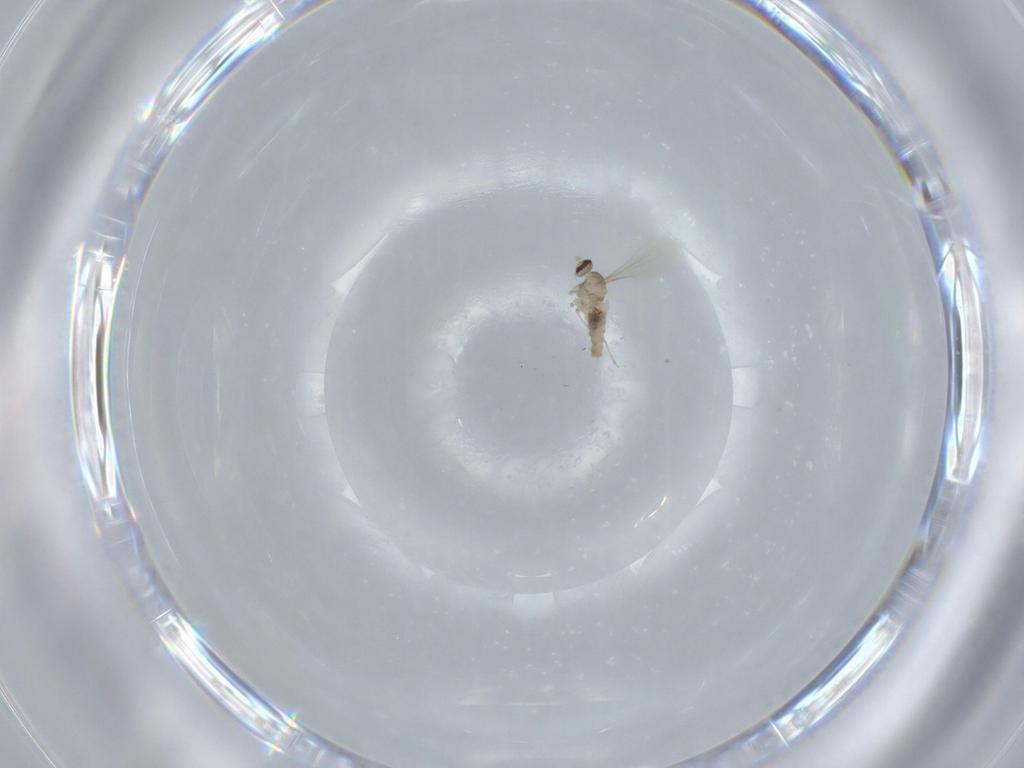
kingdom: Animalia
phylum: Arthropoda
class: Insecta
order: Diptera
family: Cecidomyiidae
